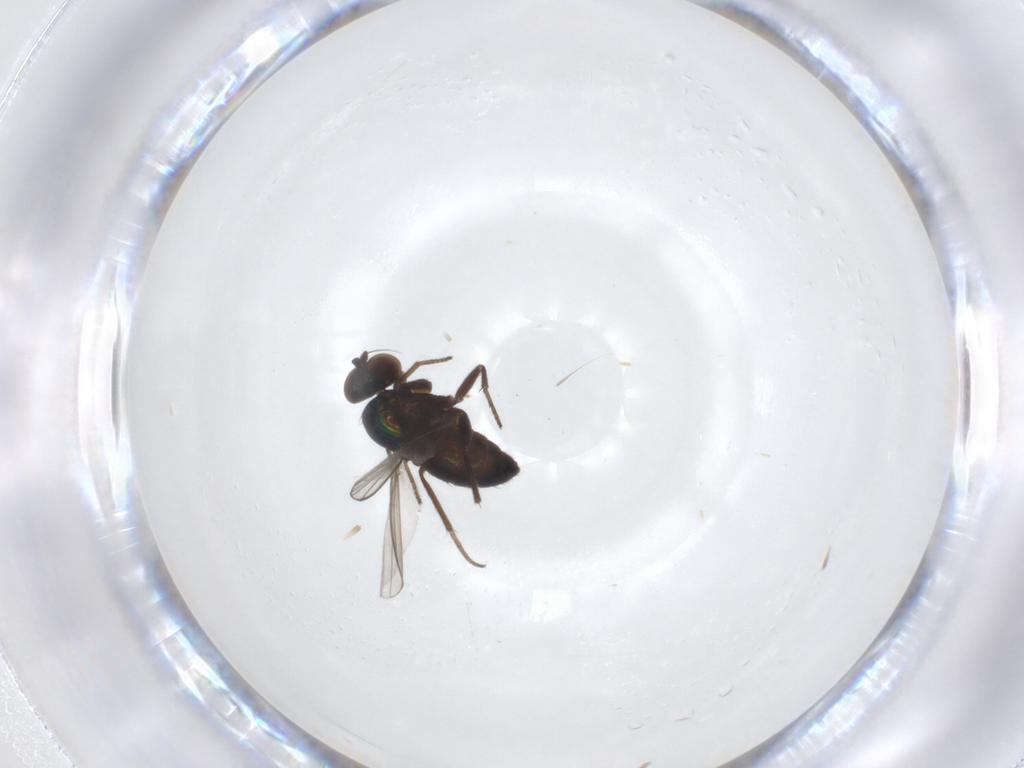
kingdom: Animalia
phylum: Arthropoda
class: Insecta
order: Diptera
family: Dolichopodidae
